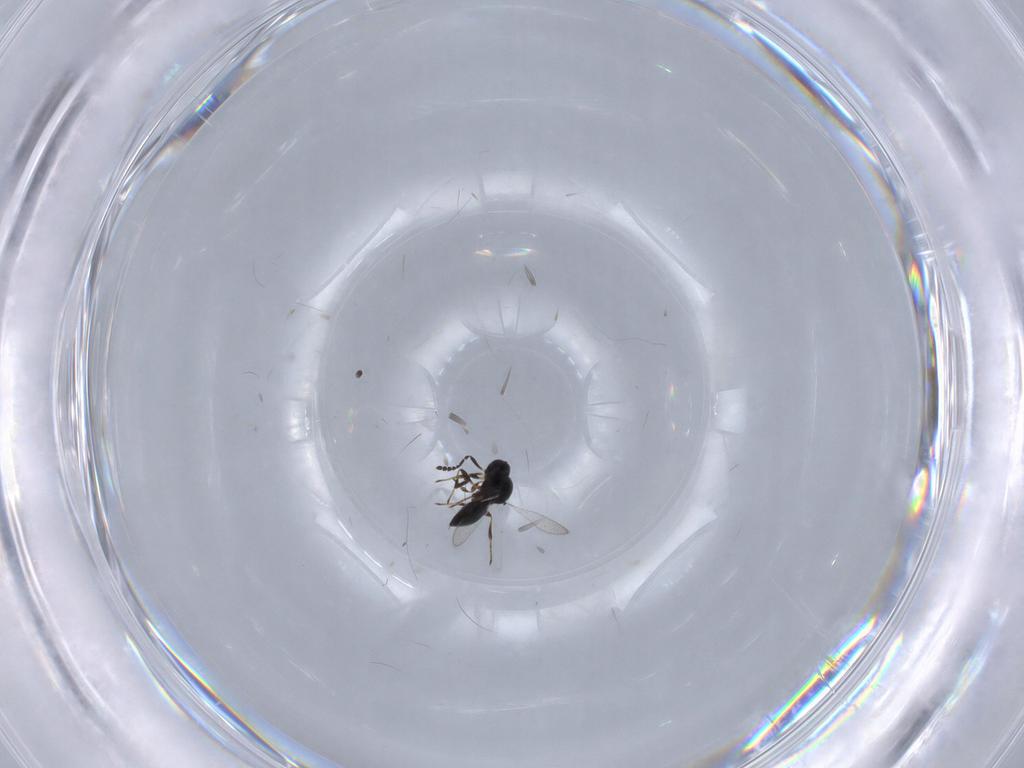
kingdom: Animalia
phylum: Arthropoda
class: Insecta
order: Hymenoptera
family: Platygastridae
